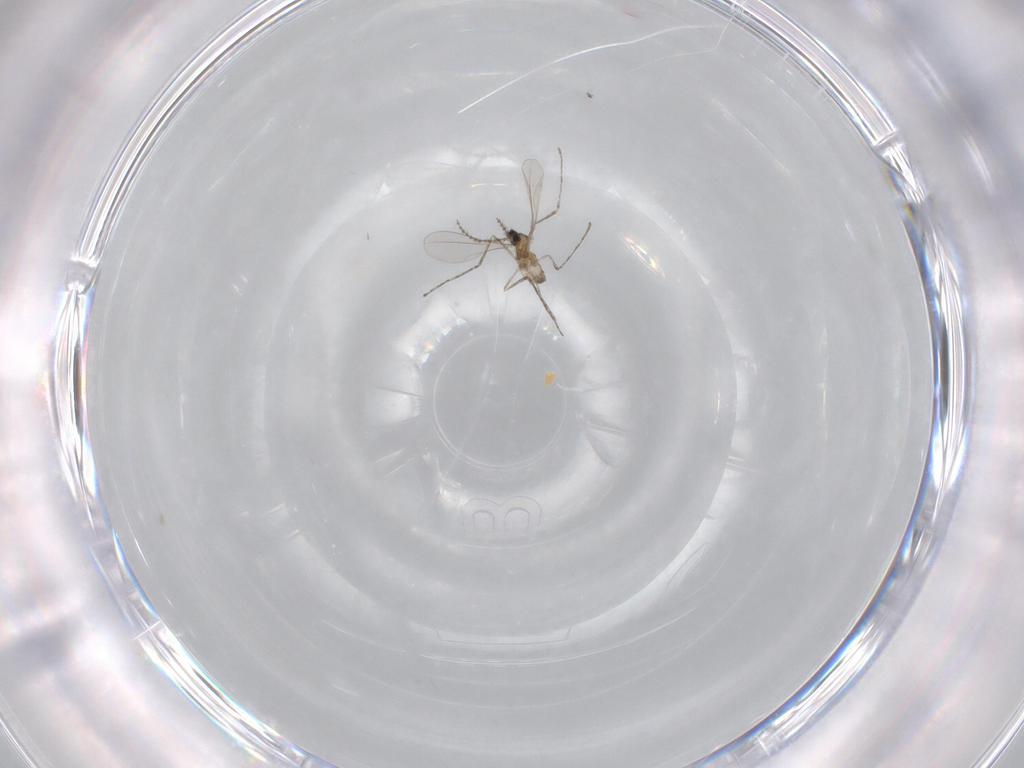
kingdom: Animalia
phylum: Arthropoda
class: Insecta
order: Diptera
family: Cecidomyiidae
